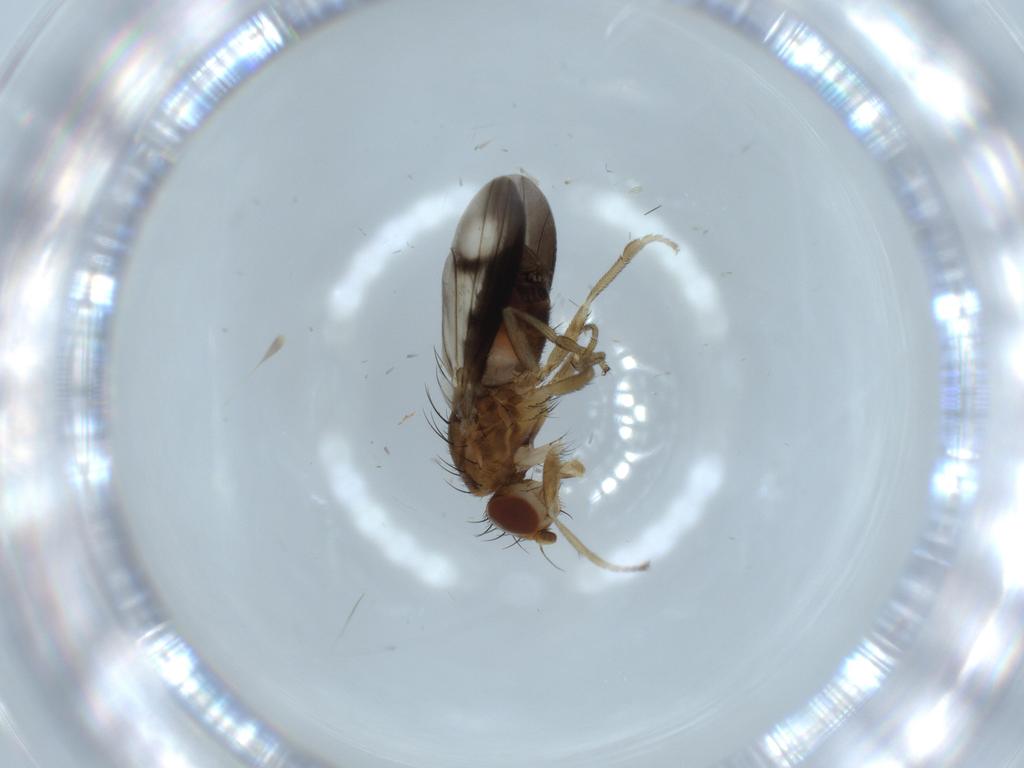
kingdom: Animalia
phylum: Arthropoda
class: Insecta
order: Diptera
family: Heleomyzidae
